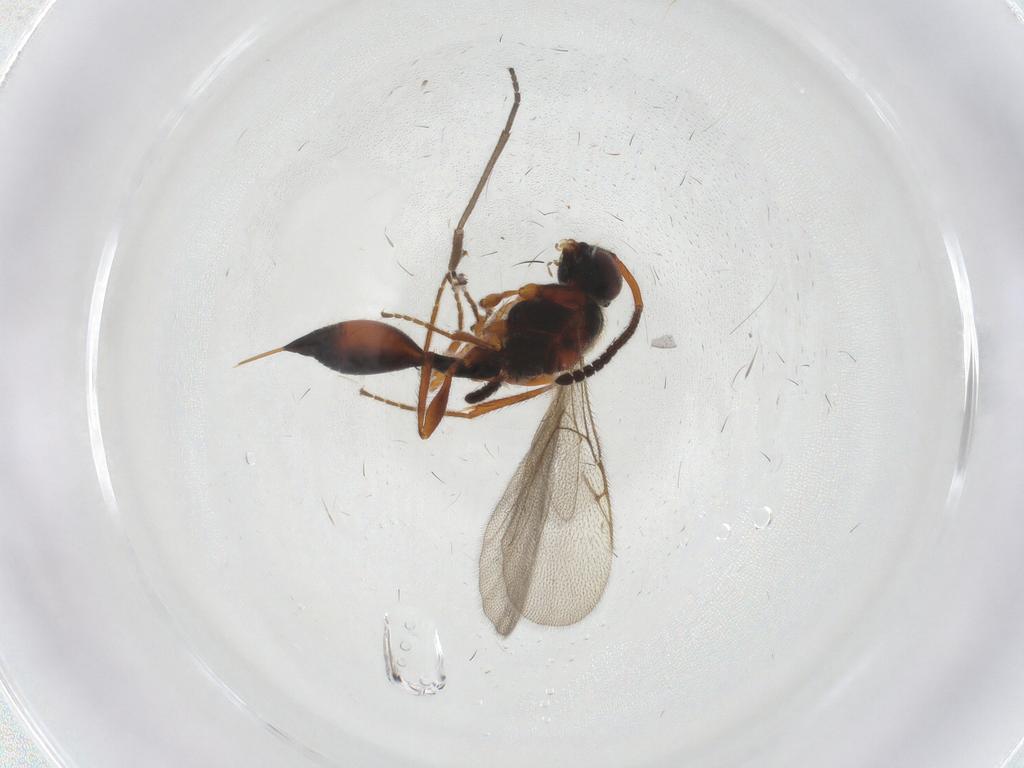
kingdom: Animalia
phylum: Arthropoda
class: Insecta
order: Hymenoptera
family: Diapriidae
